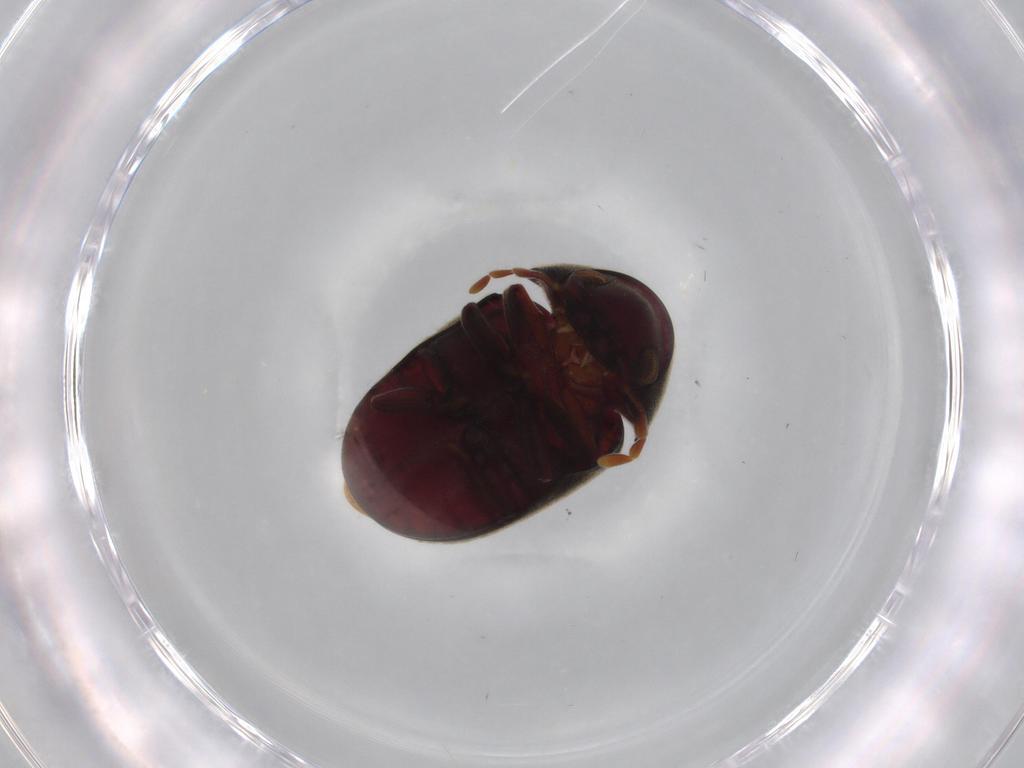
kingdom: Animalia
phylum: Arthropoda
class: Insecta
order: Coleoptera
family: Ptinidae
